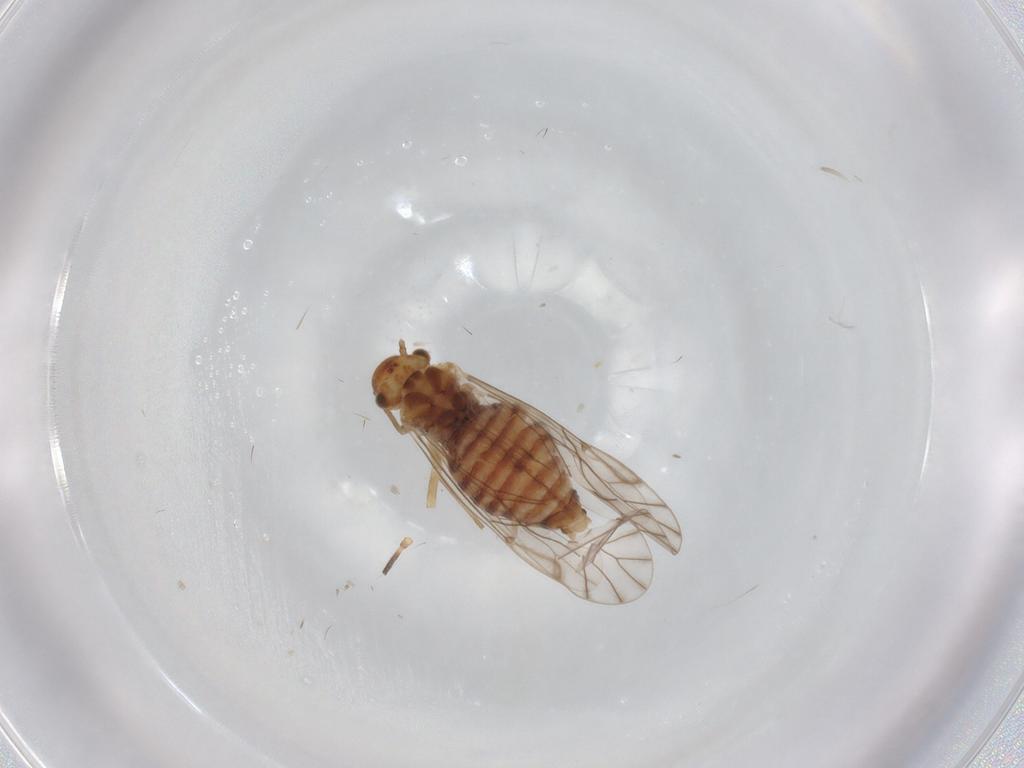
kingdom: Animalia
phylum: Arthropoda
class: Insecta
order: Psocodea
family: Lachesillidae
